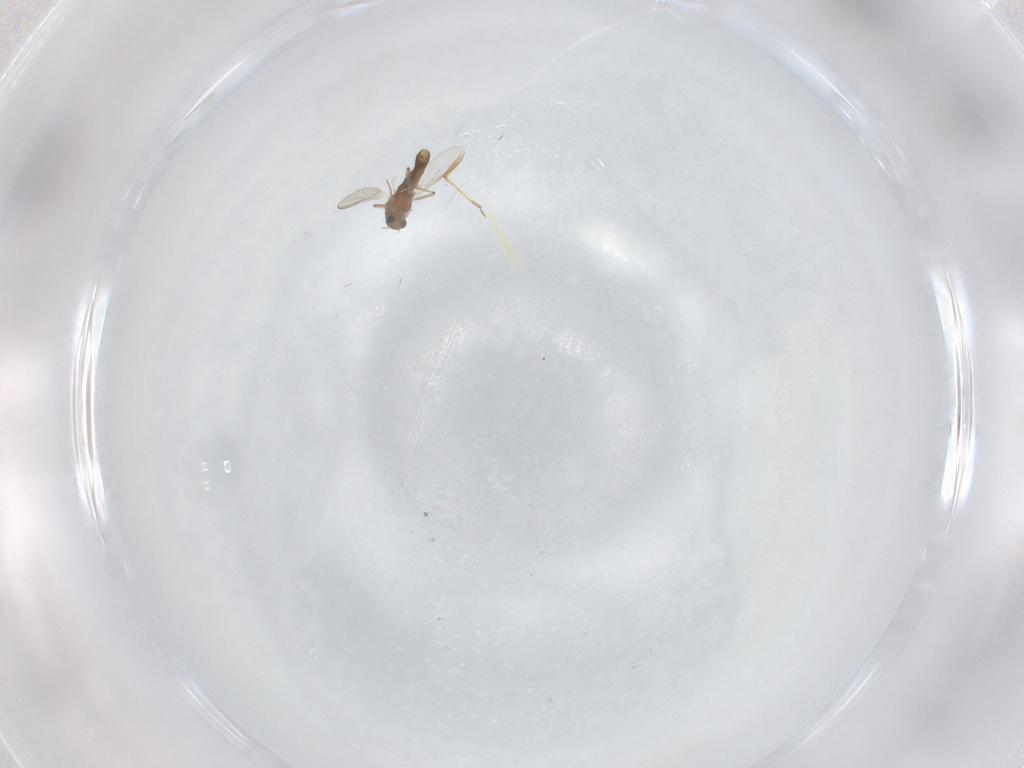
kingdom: Animalia
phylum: Arthropoda
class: Insecta
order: Diptera
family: Chironomidae
